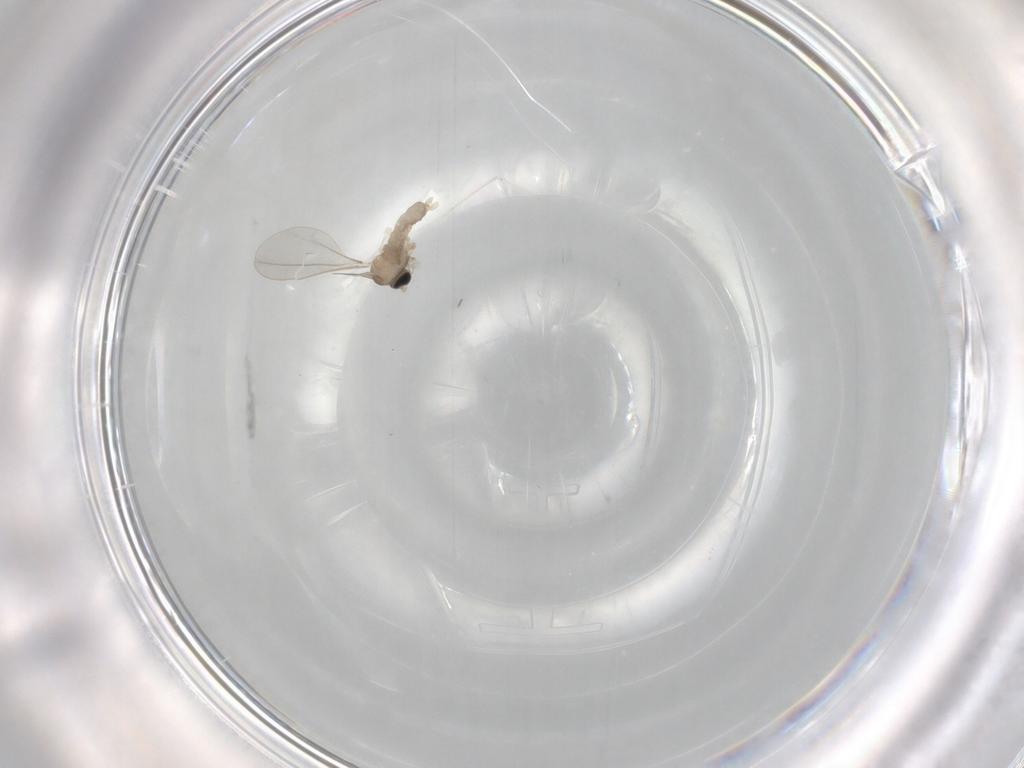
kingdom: Animalia
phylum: Arthropoda
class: Insecta
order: Diptera
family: Cecidomyiidae
